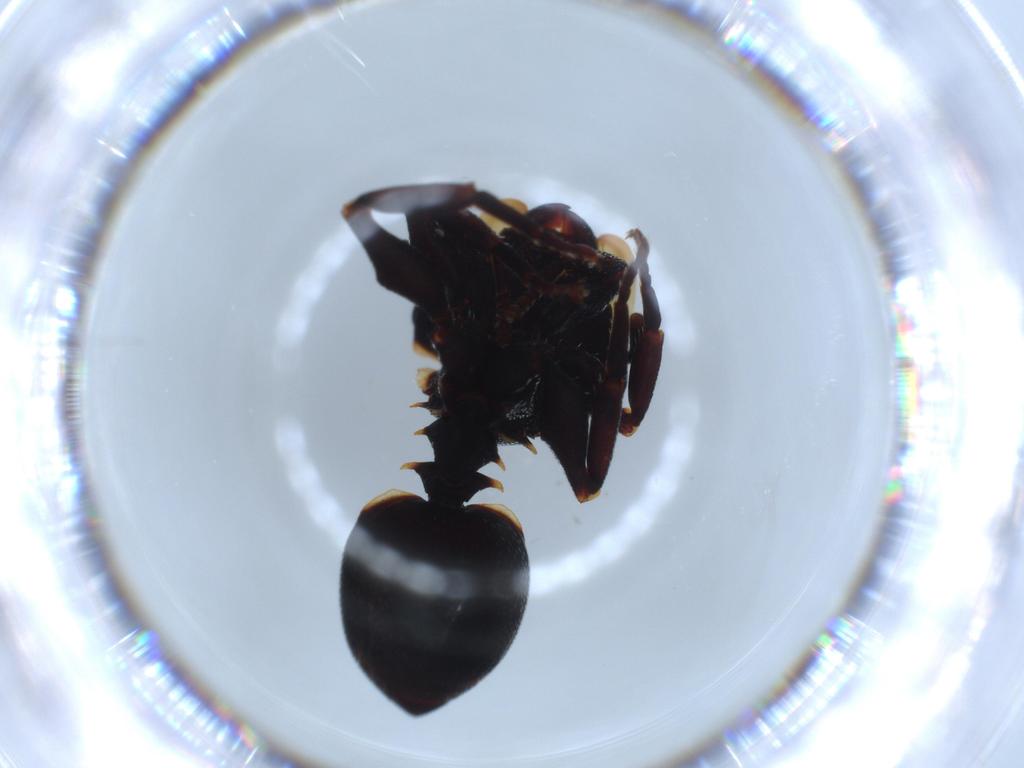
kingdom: Animalia
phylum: Arthropoda
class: Insecta
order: Hymenoptera
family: Formicidae
